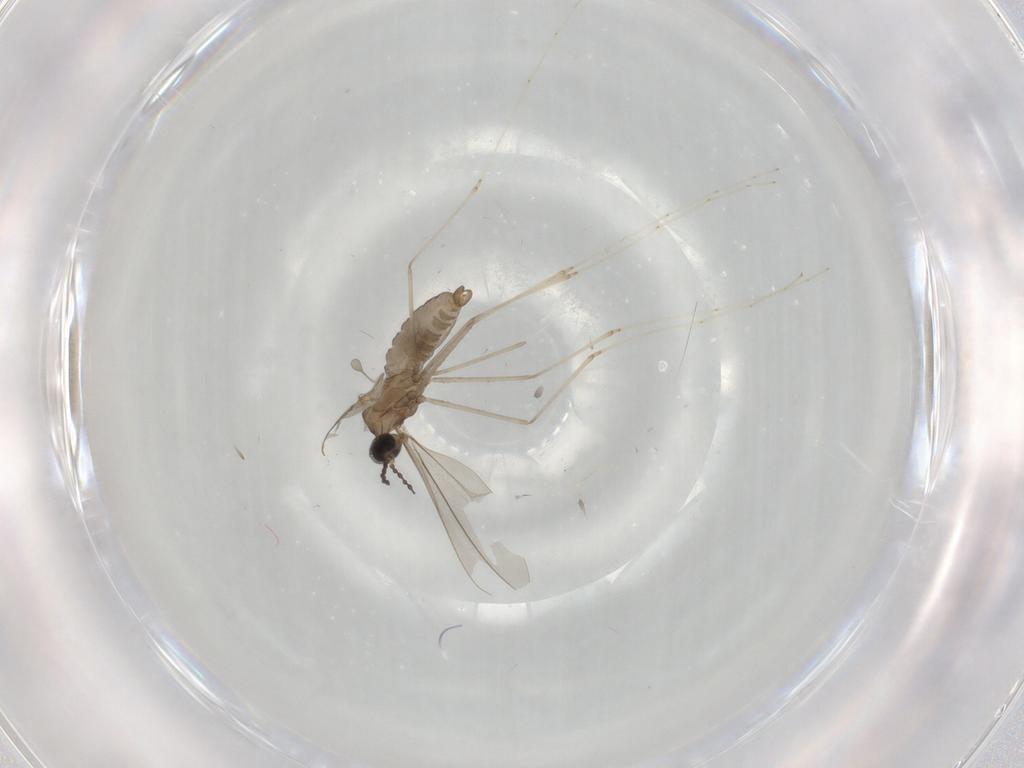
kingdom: Animalia
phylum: Arthropoda
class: Insecta
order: Diptera
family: Cecidomyiidae
